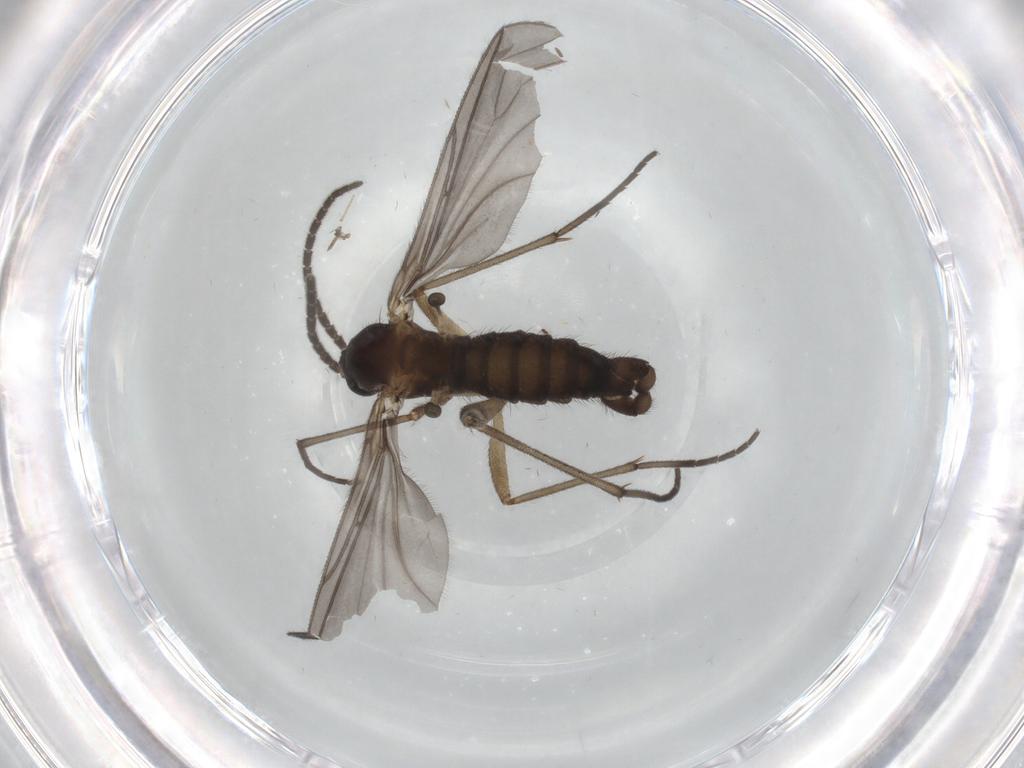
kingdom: Animalia
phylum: Arthropoda
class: Insecta
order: Diptera
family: Sciaridae
